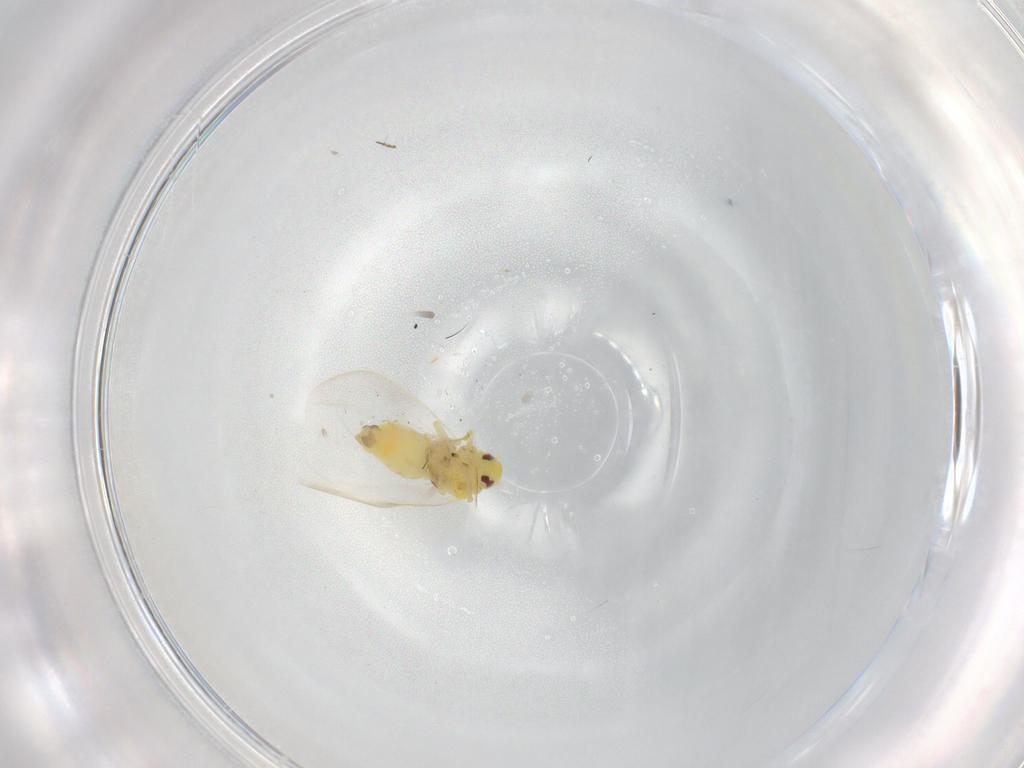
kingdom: Animalia
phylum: Arthropoda
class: Insecta
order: Hemiptera
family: Aleyrodidae
